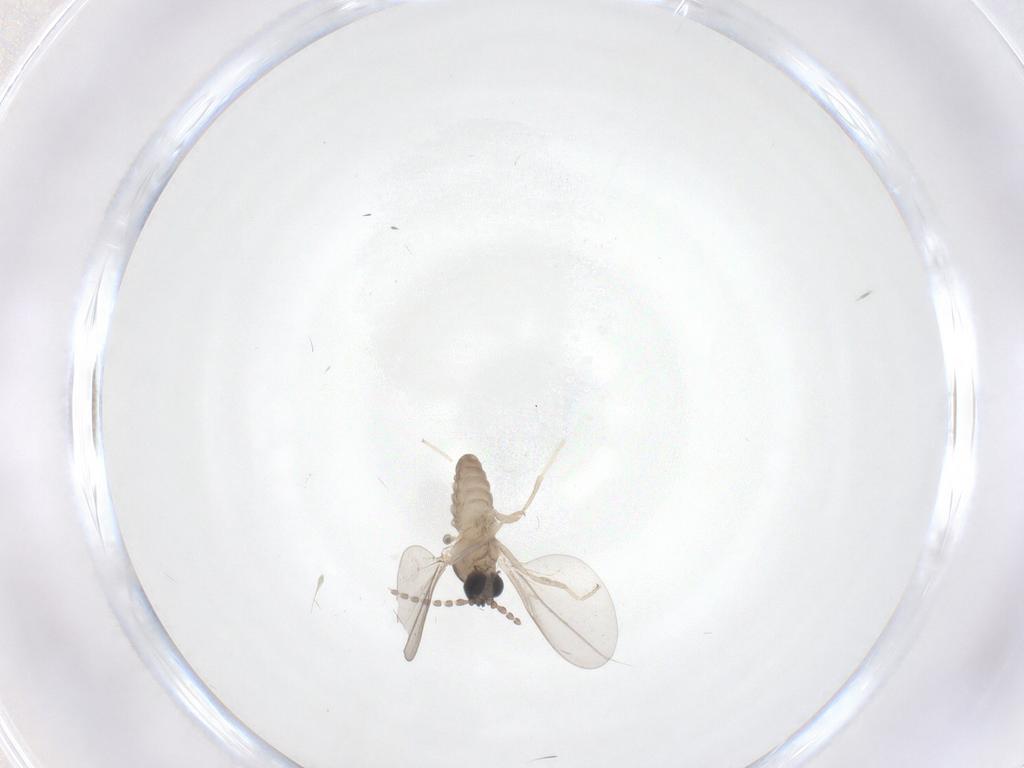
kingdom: Animalia
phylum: Arthropoda
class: Insecta
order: Diptera
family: Cecidomyiidae
